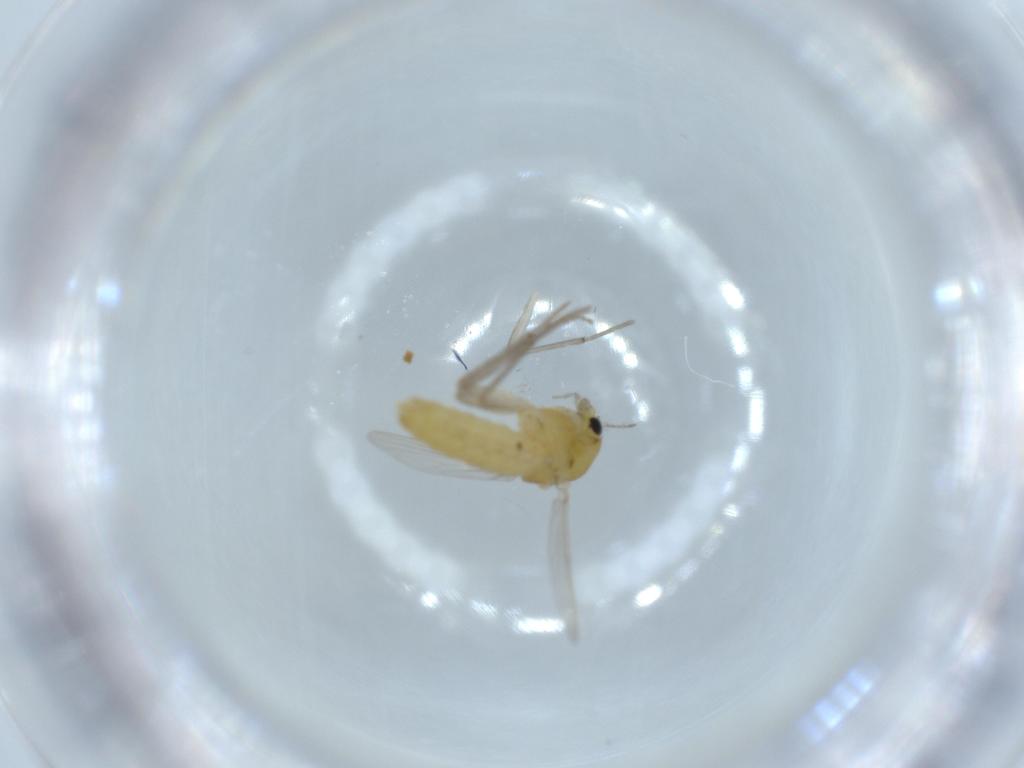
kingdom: Animalia
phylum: Arthropoda
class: Insecta
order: Diptera
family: Chironomidae
